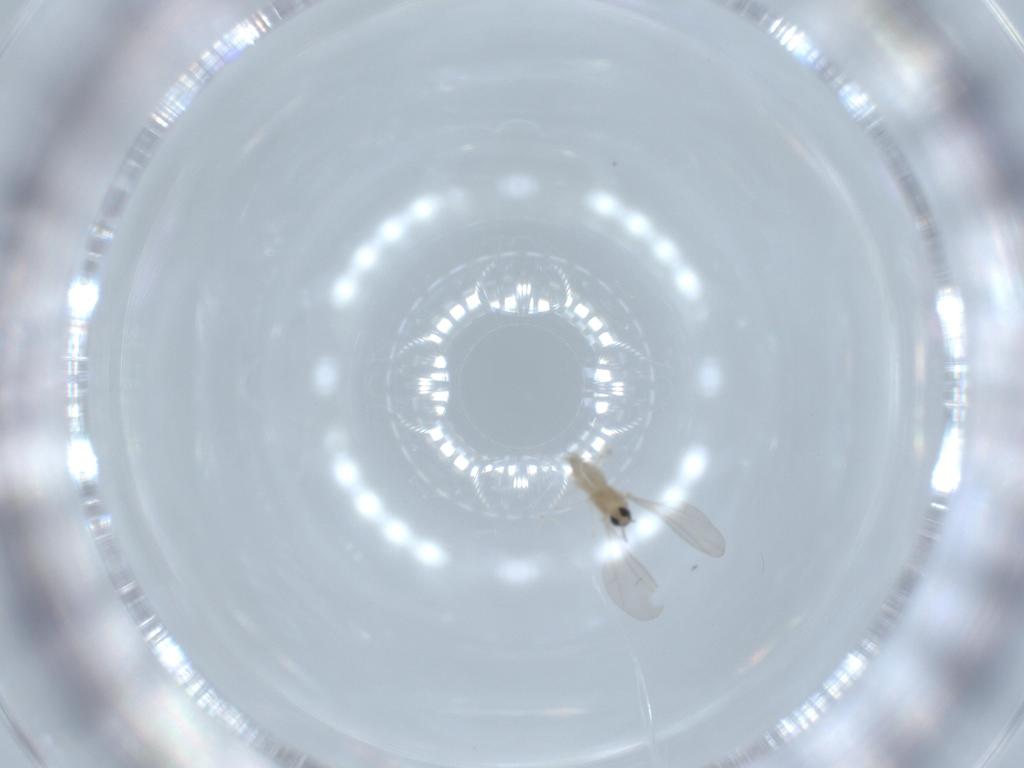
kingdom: Animalia
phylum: Arthropoda
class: Insecta
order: Diptera
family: Cecidomyiidae
